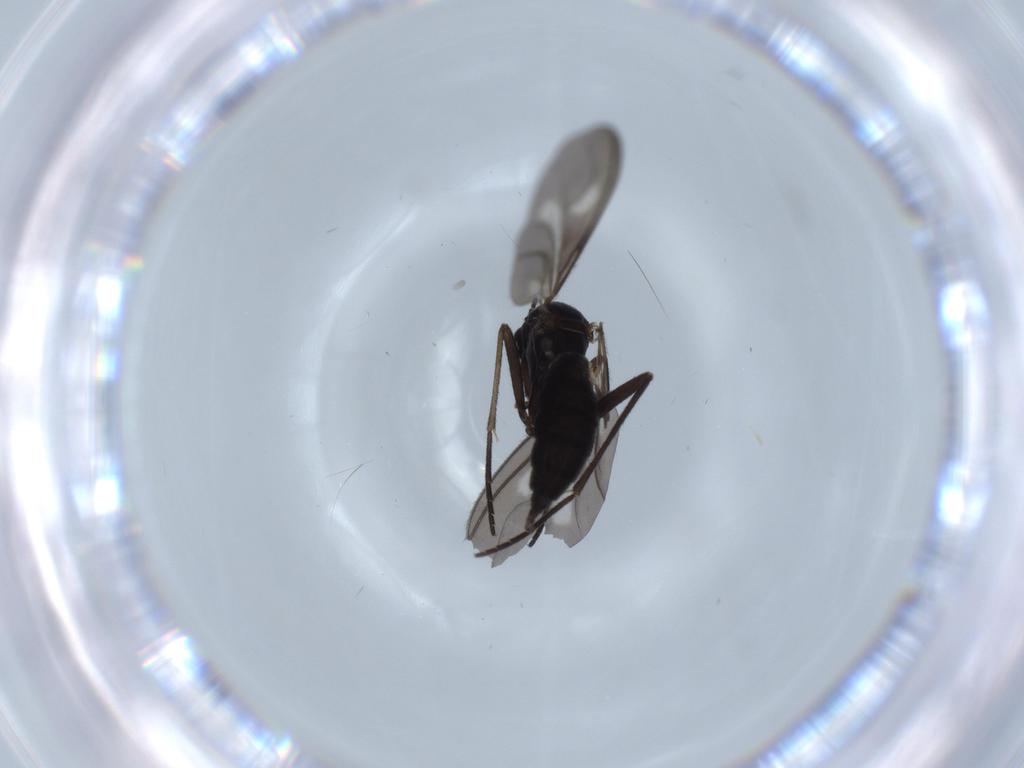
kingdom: Animalia
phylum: Arthropoda
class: Insecta
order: Diptera
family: Sciaridae
